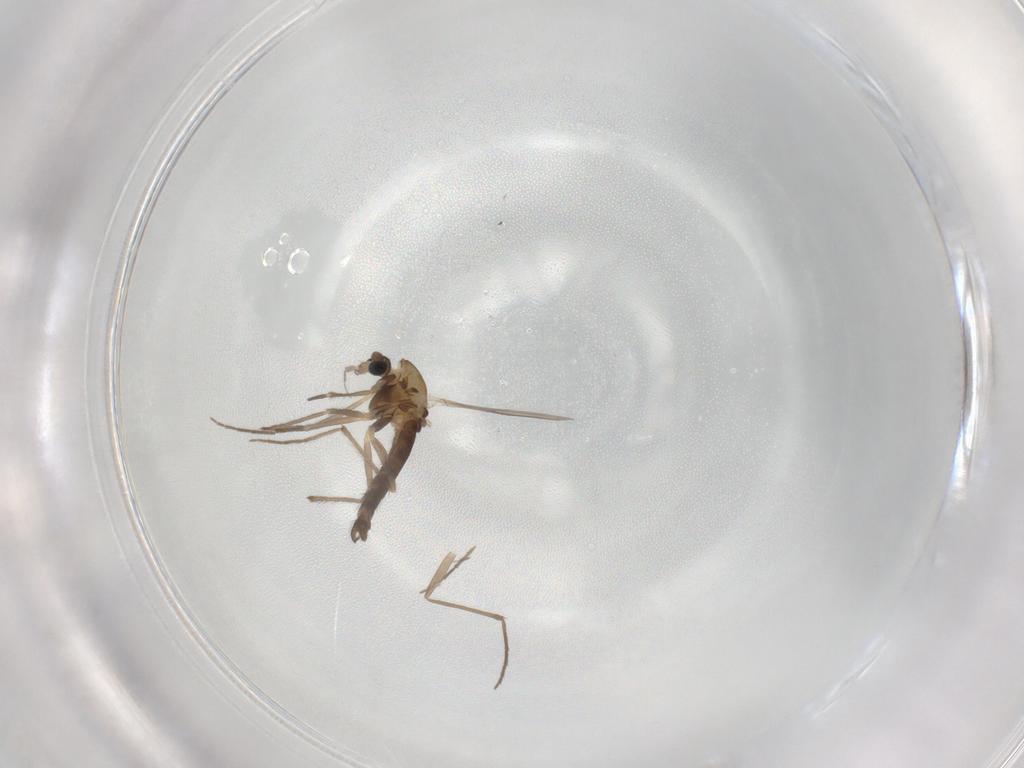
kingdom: Animalia
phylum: Arthropoda
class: Insecta
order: Diptera
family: Chironomidae
